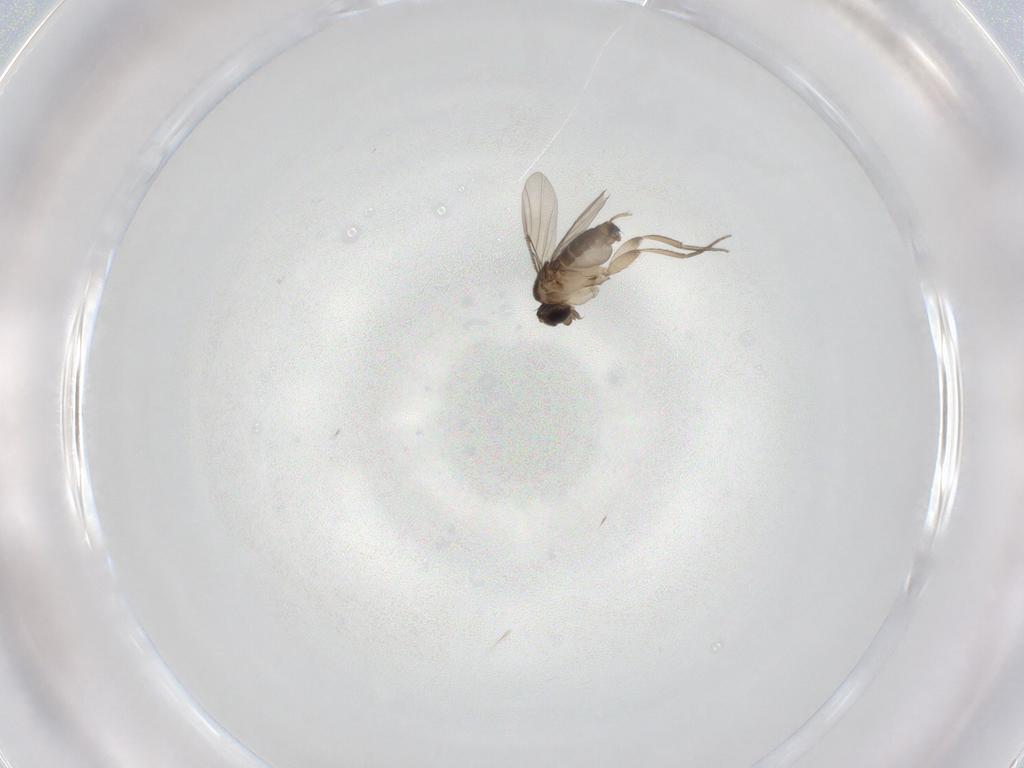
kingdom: Animalia
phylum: Arthropoda
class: Insecta
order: Diptera
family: Phoridae
